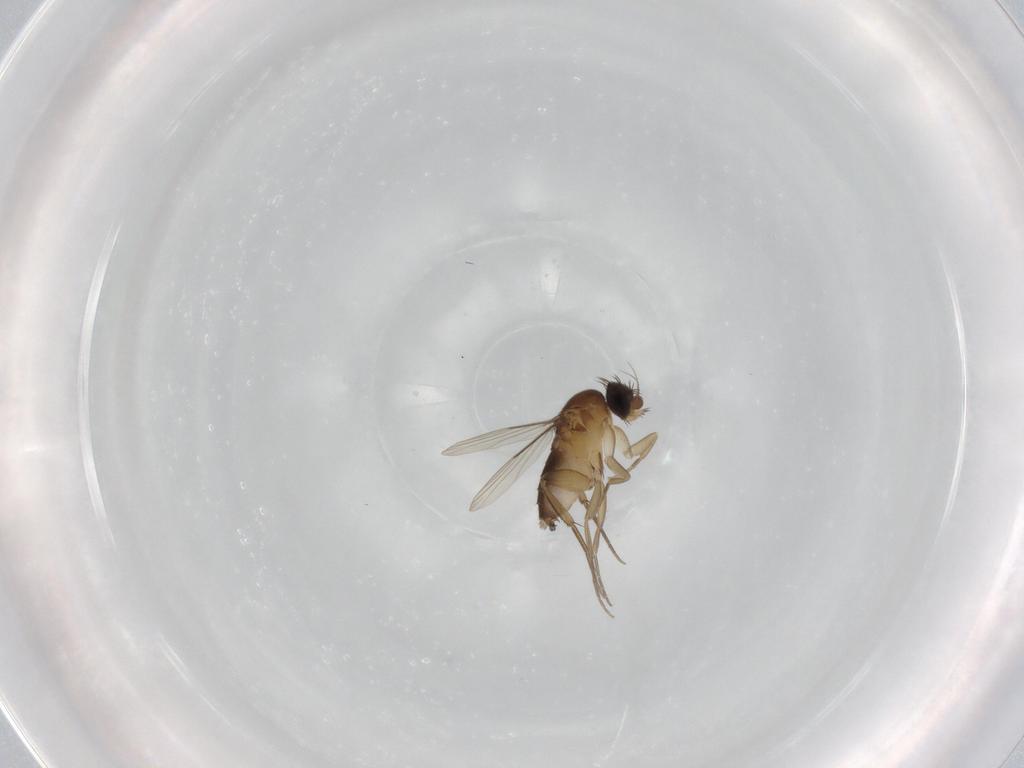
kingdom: Animalia
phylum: Arthropoda
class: Insecta
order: Diptera
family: Phoridae
